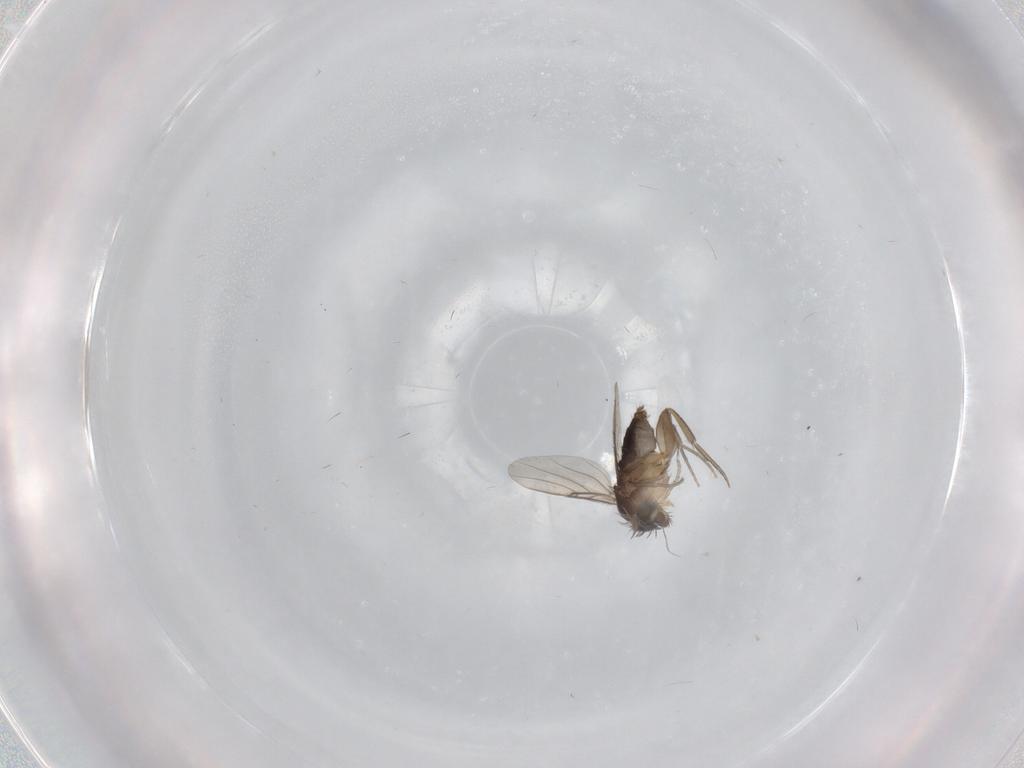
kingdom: Animalia
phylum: Arthropoda
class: Insecta
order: Diptera
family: Phoridae
